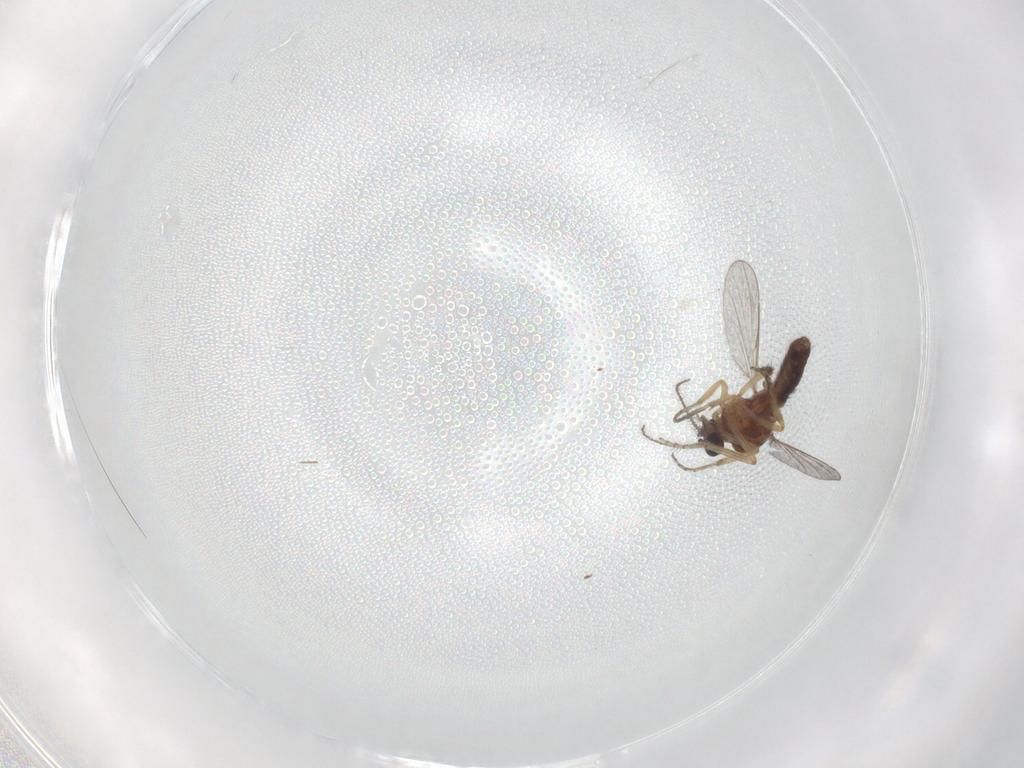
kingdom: Animalia
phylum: Arthropoda
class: Insecta
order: Diptera
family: Ceratopogonidae
